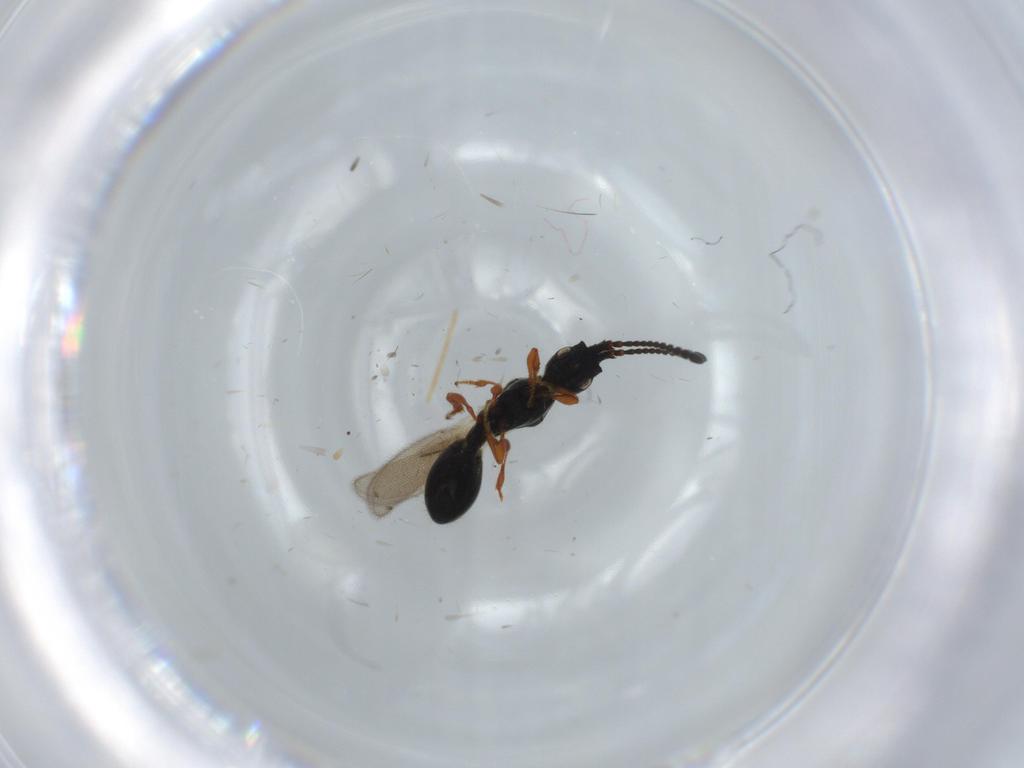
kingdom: Animalia
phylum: Arthropoda
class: Insecta
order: Hymenoptera
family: Diapriidae
